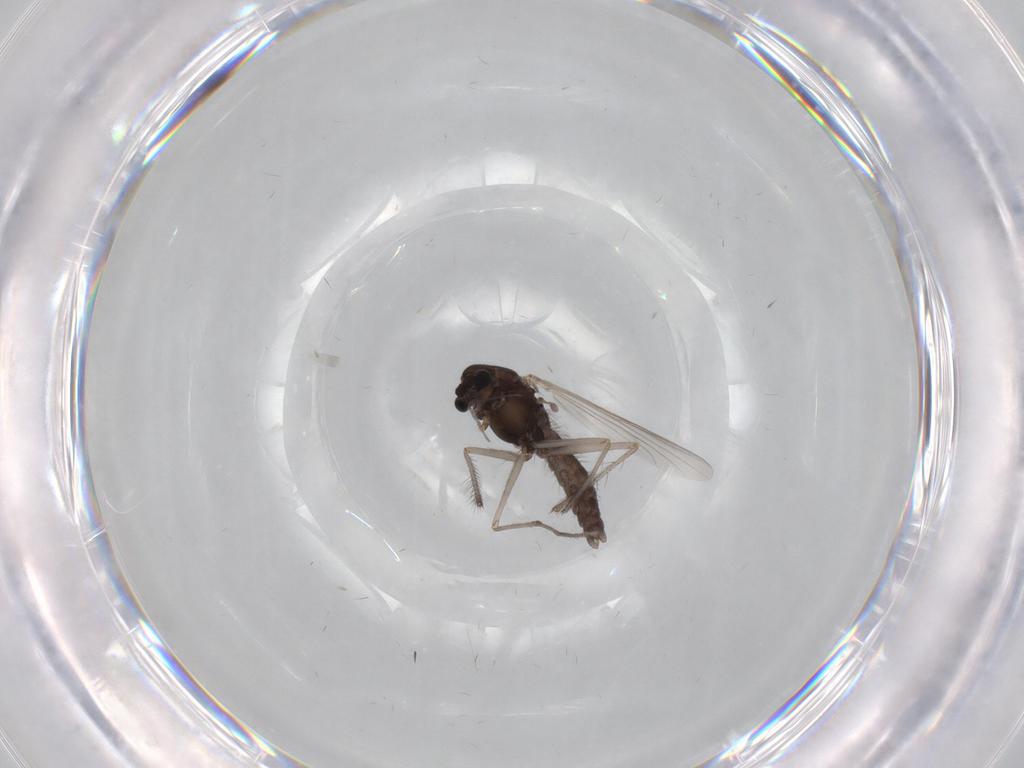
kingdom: Animalia
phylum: Arthropoda
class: Insecta
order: Diptera
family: Chironomidae
